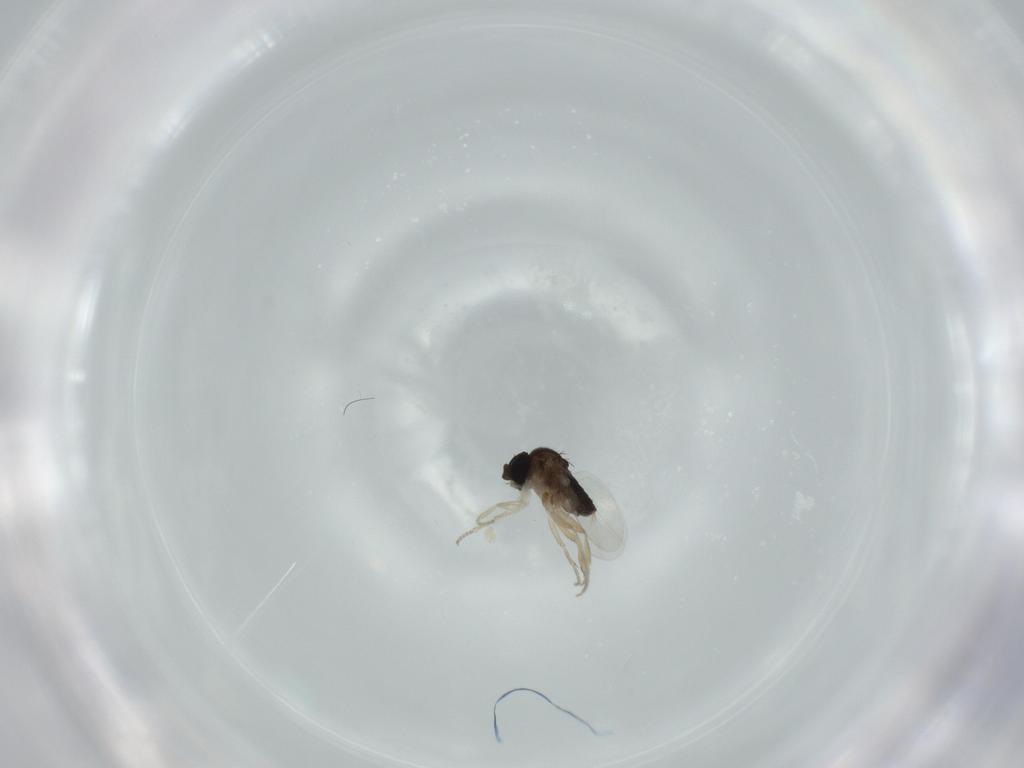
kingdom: Animalia
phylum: Arthropoda
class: Insecta
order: Diptera
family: Phoridae
